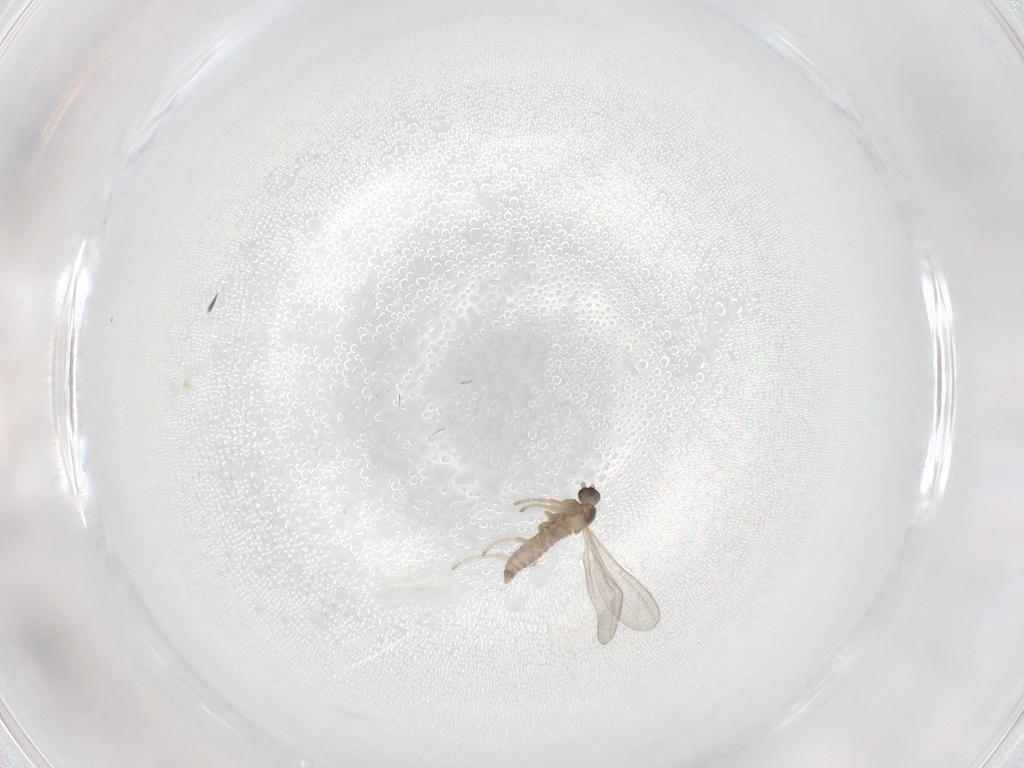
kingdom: Animalia
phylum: Arthropoda
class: Insecta
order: Diptera
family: Cecidomyiidae
